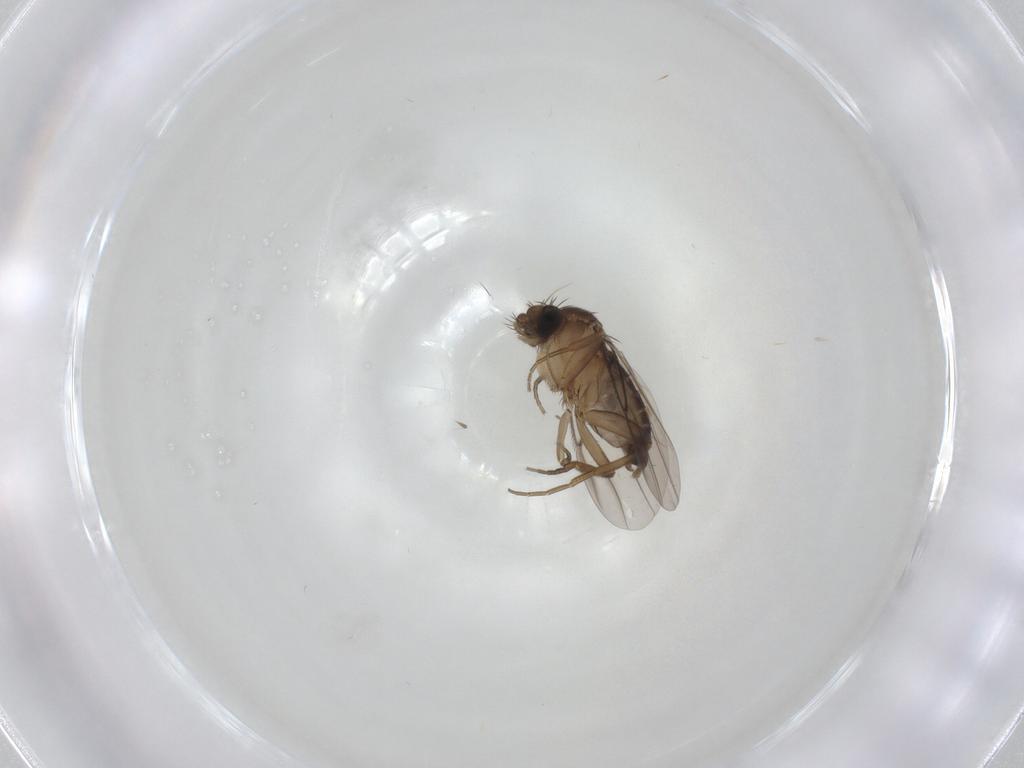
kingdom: Animalia
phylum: Arthropoda
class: Insecta
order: Diptera
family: Phoridae
